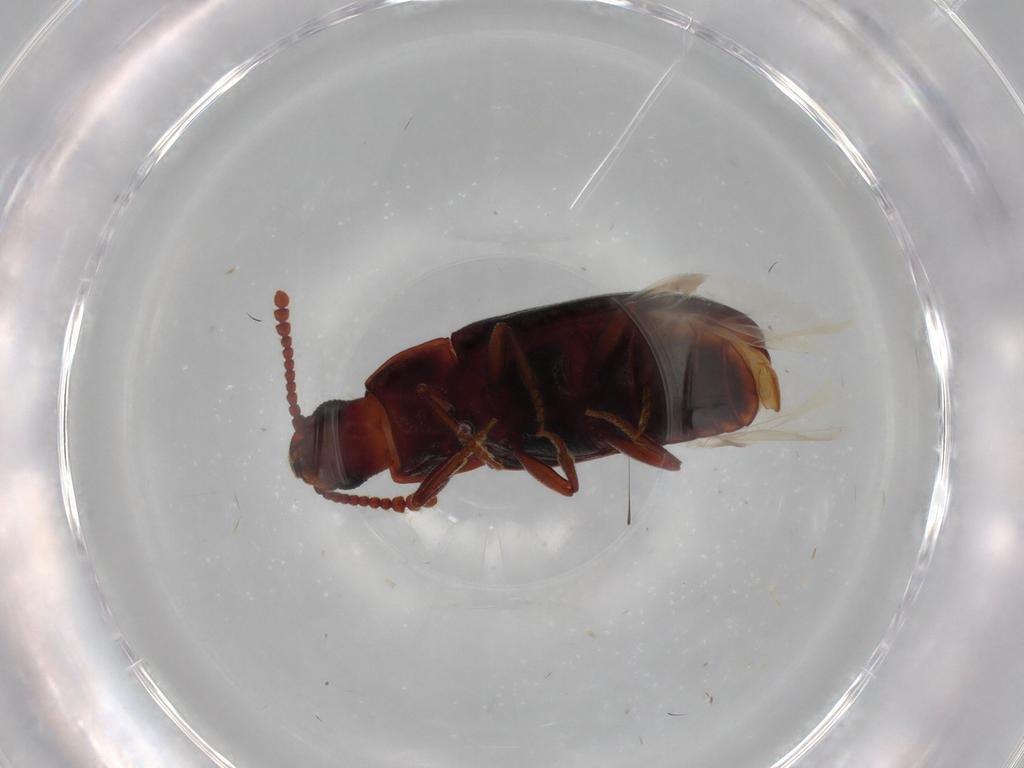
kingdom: Animalia
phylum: Arthropoda
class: Insecta
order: Coleoptera
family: Erotylidae
